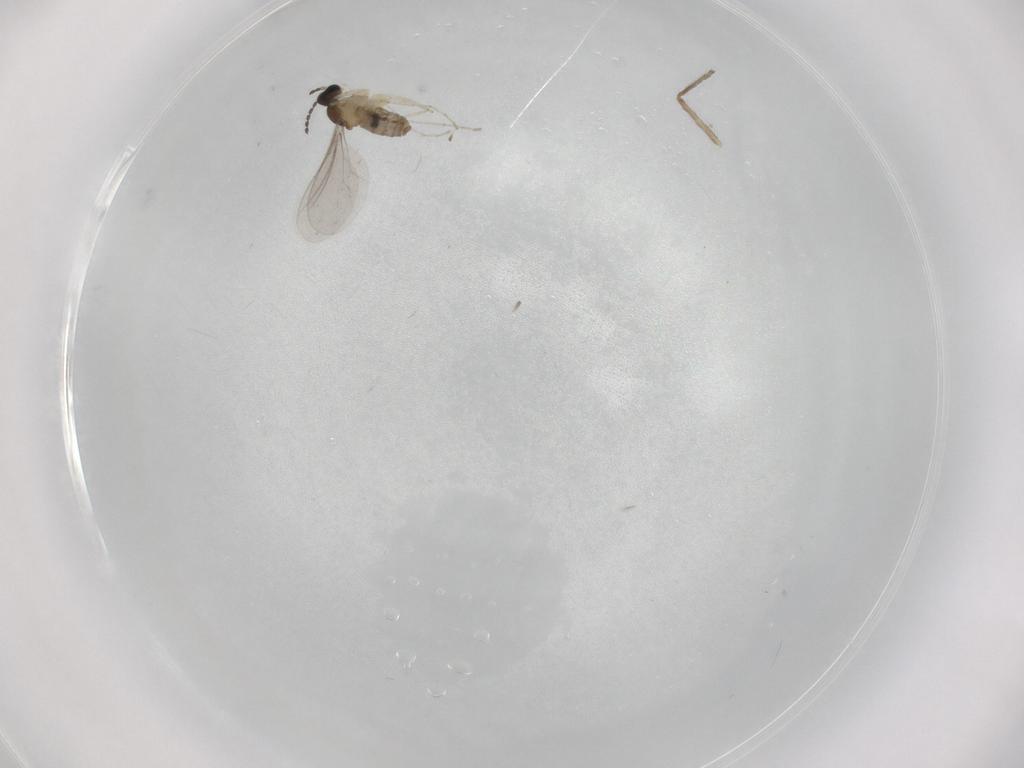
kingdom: Animalia
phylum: Arthropoda
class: Insecta
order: Diptera
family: Cecidomyiidae
